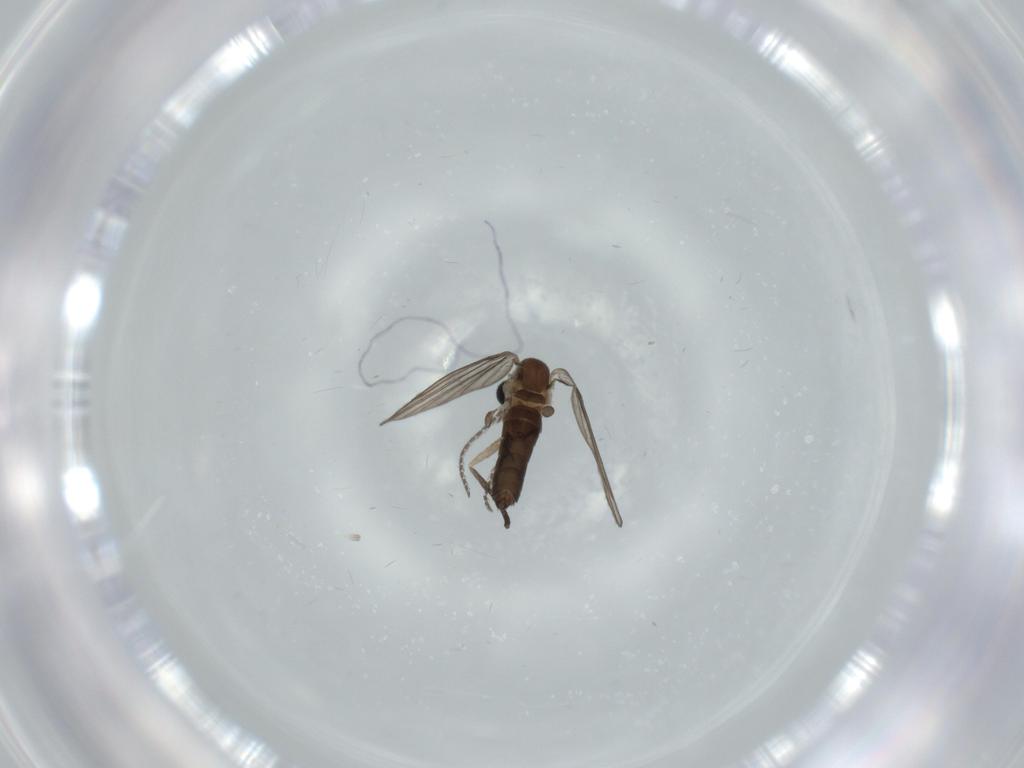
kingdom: Animalia
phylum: Arthropoda
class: Insecta
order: Diptera
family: Psychodidae
